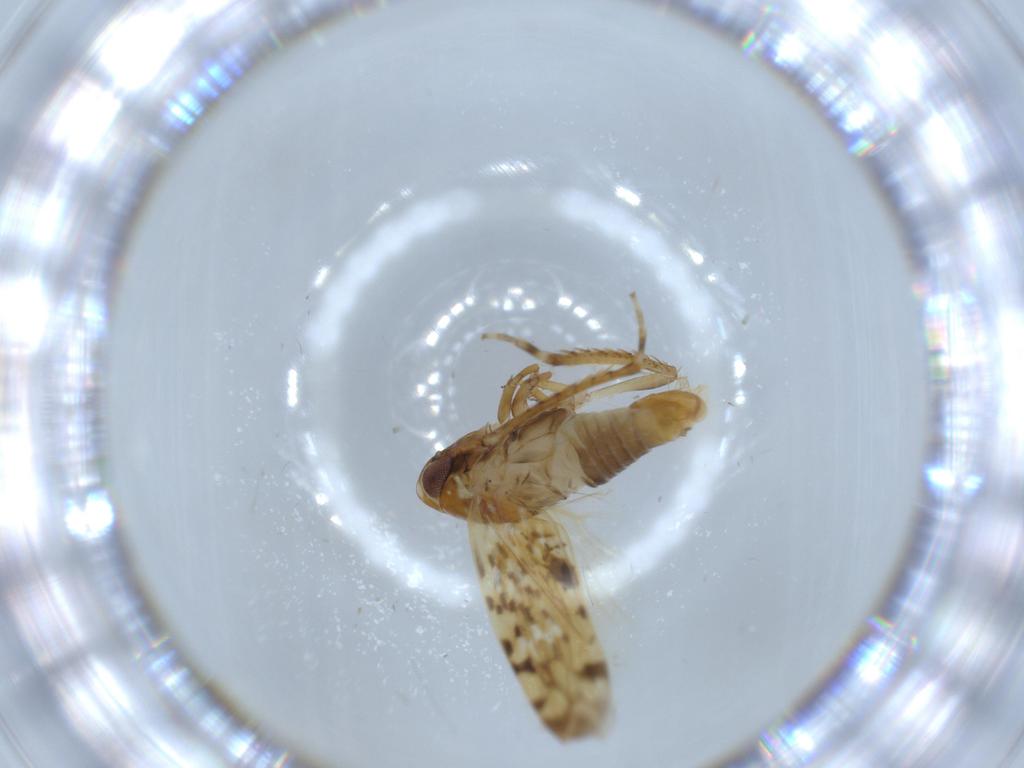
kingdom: Animalia
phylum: Arthropoda
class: Insecta
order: Hemiptera
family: Cicadellidae
